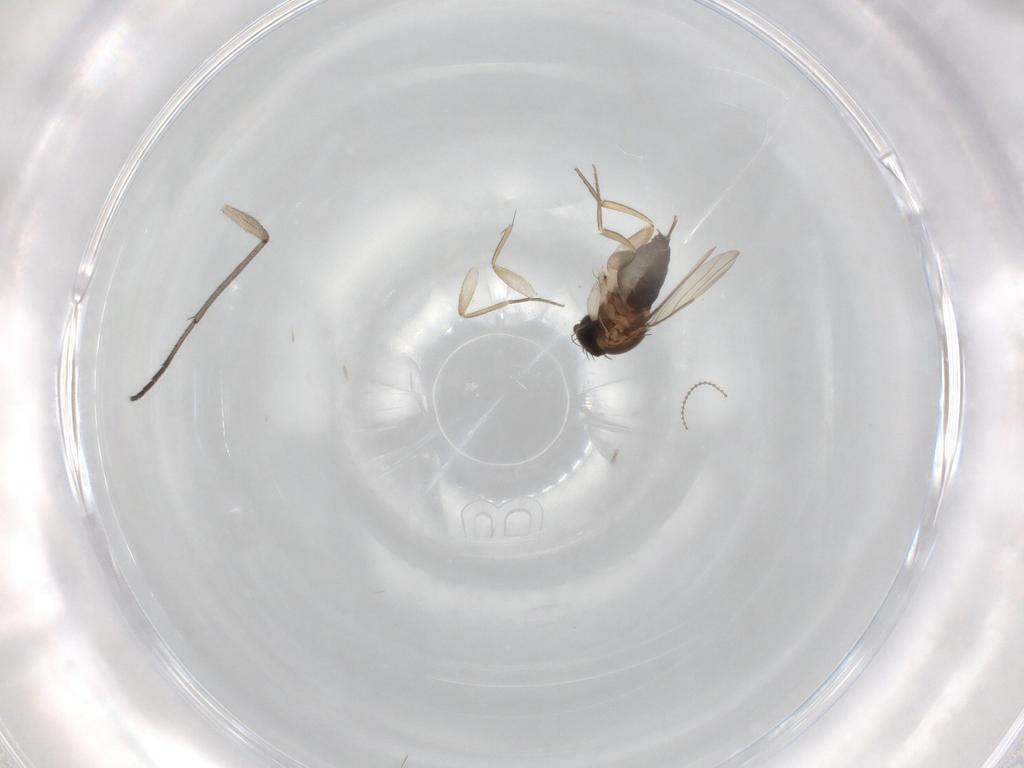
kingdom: Animalia
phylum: Arthropoda
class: Insecta
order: Diptera
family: Phoridae
